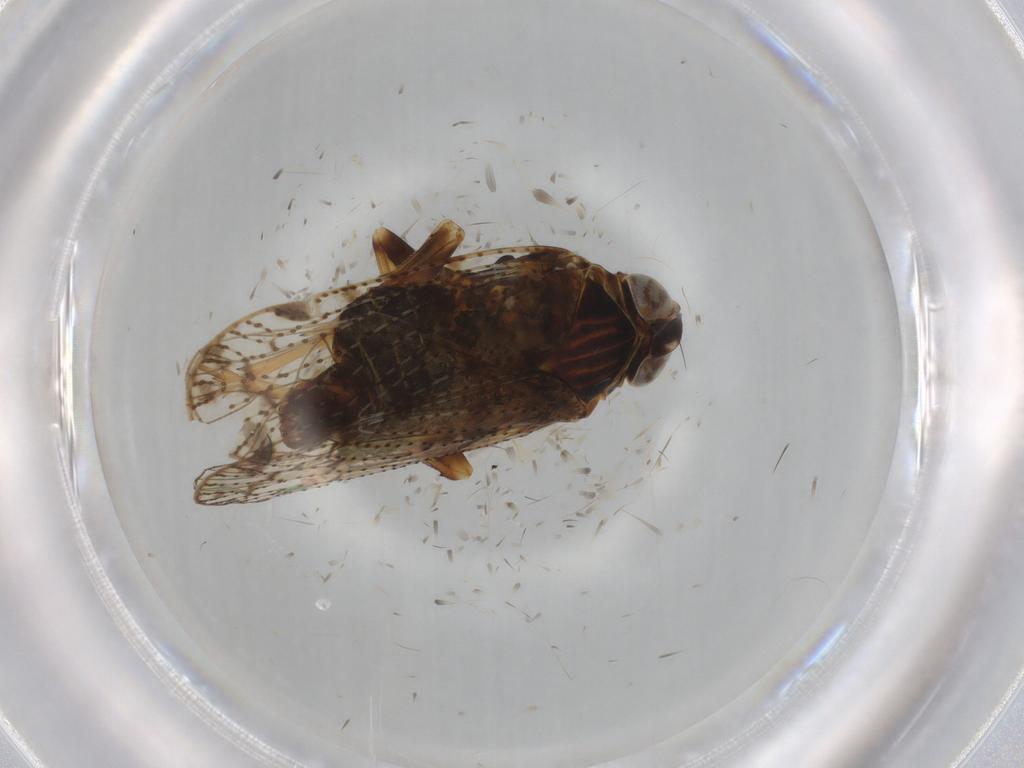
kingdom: Animalia
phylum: Arthropoda
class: Insecta
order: Hemiptera
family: Cixiidae
